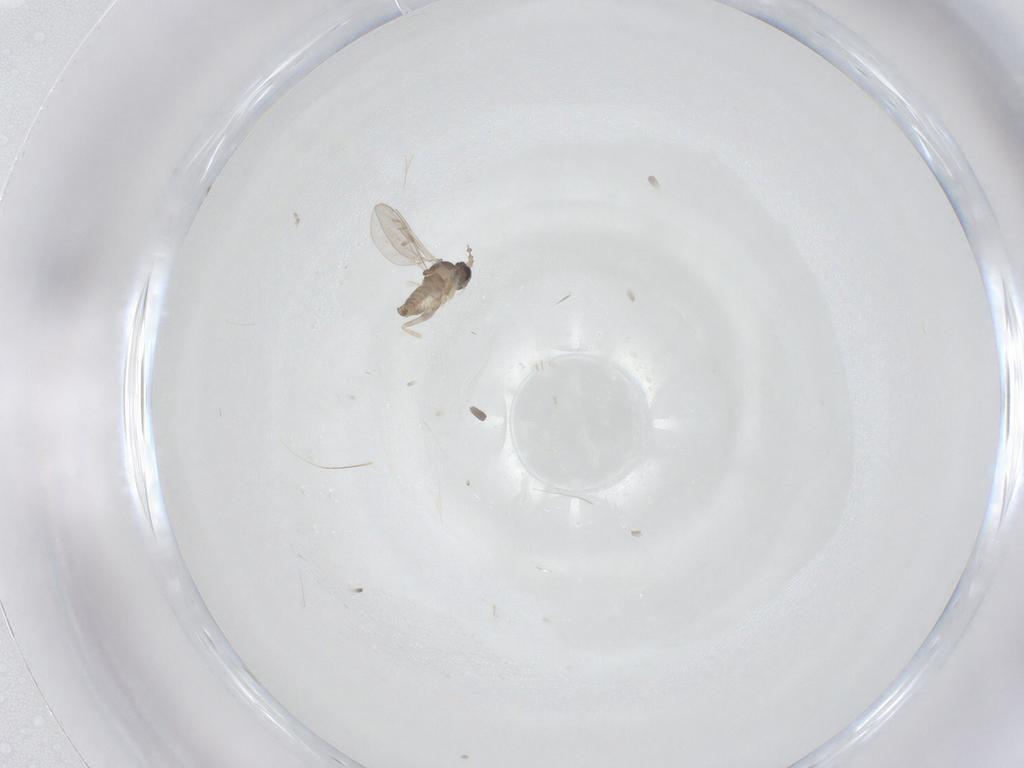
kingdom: Animalia
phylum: Arthropoda
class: Insecta
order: Diptera
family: Cecidomyiidae
